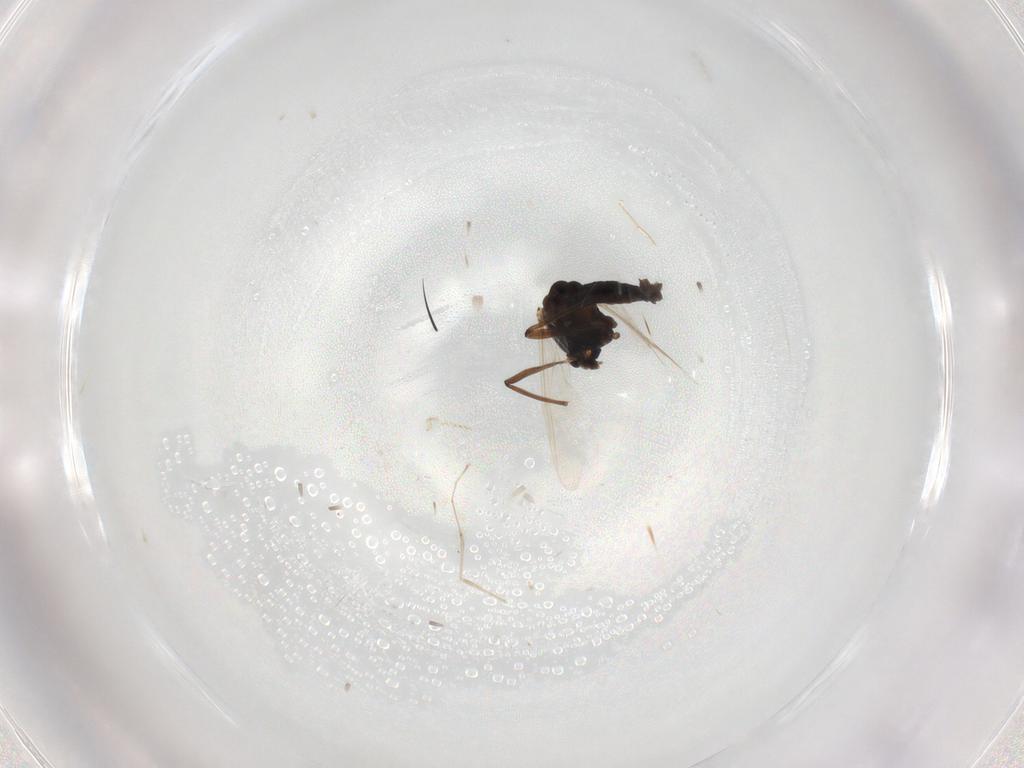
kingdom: Animalia
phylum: Arthropoda
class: Insecta
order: Diptera
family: Chironomidae
